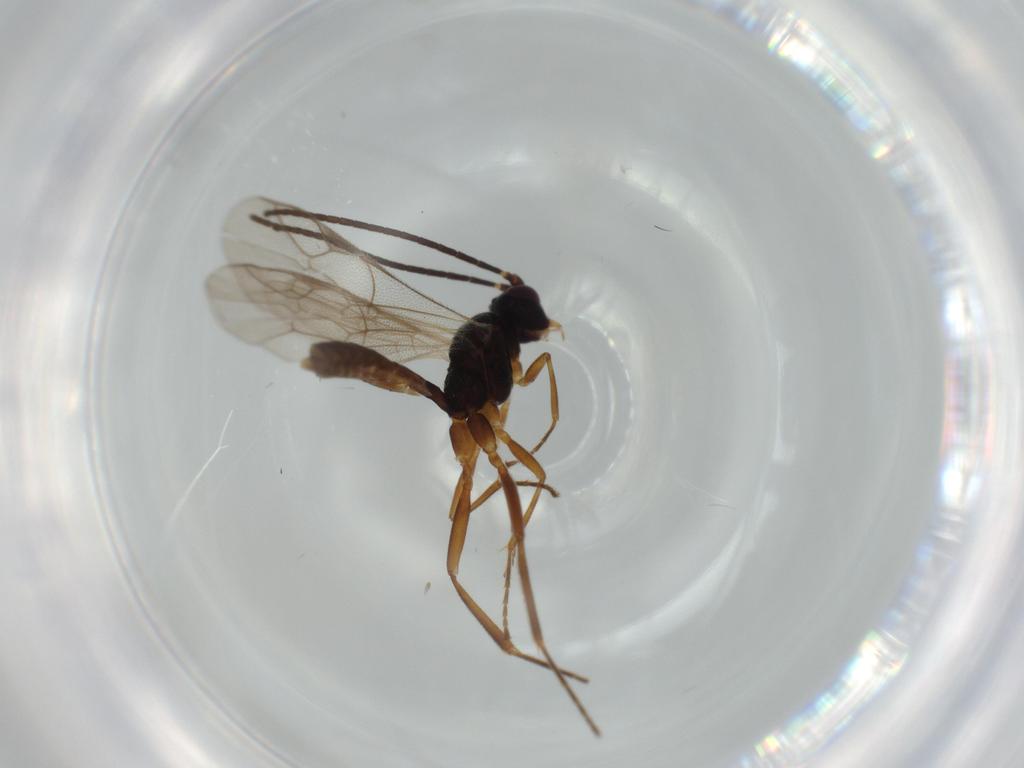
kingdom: Animalia
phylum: Arthropoda
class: Insecta
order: Hymenoptera
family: Ichneumonidae
